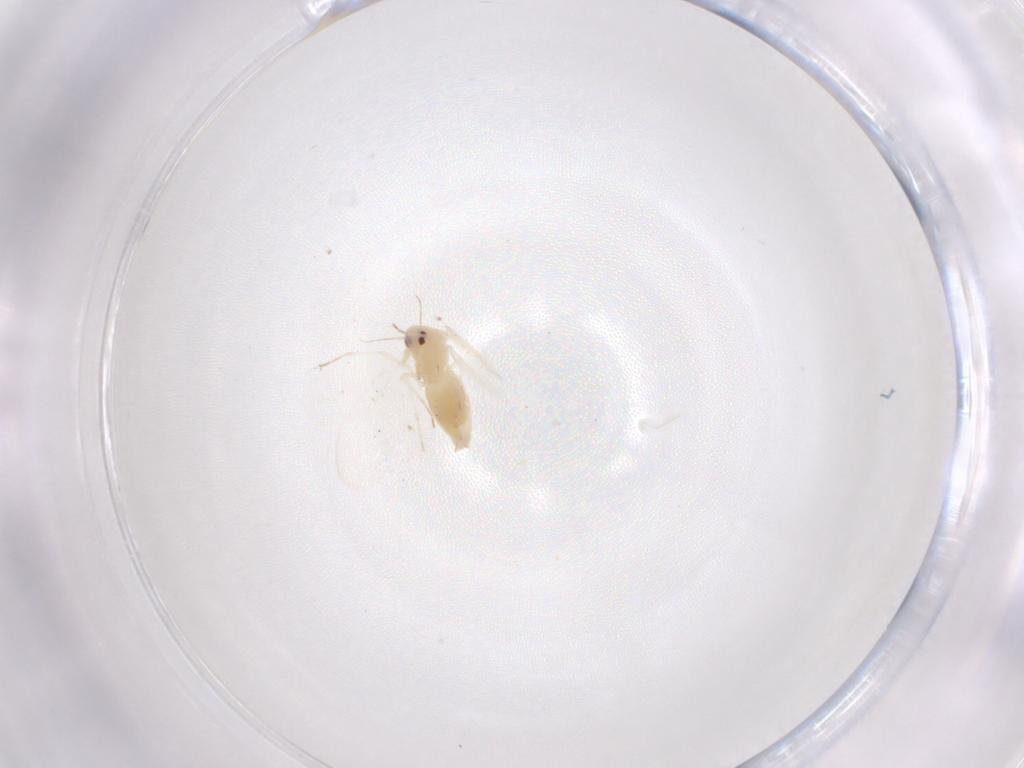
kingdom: Animalia
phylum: Arthropoda
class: Insecta
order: Hemiptera
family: Aleyrodidae
